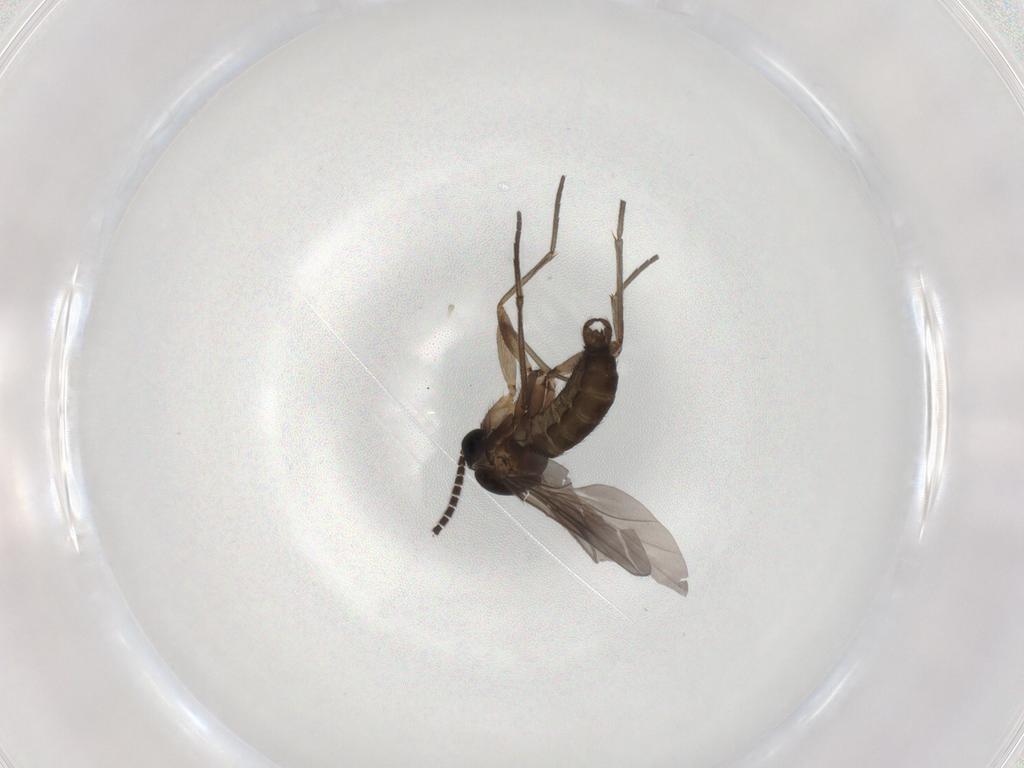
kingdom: Animalia
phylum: Arthropoda
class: Insecta
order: Diptera
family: Sciaridae
